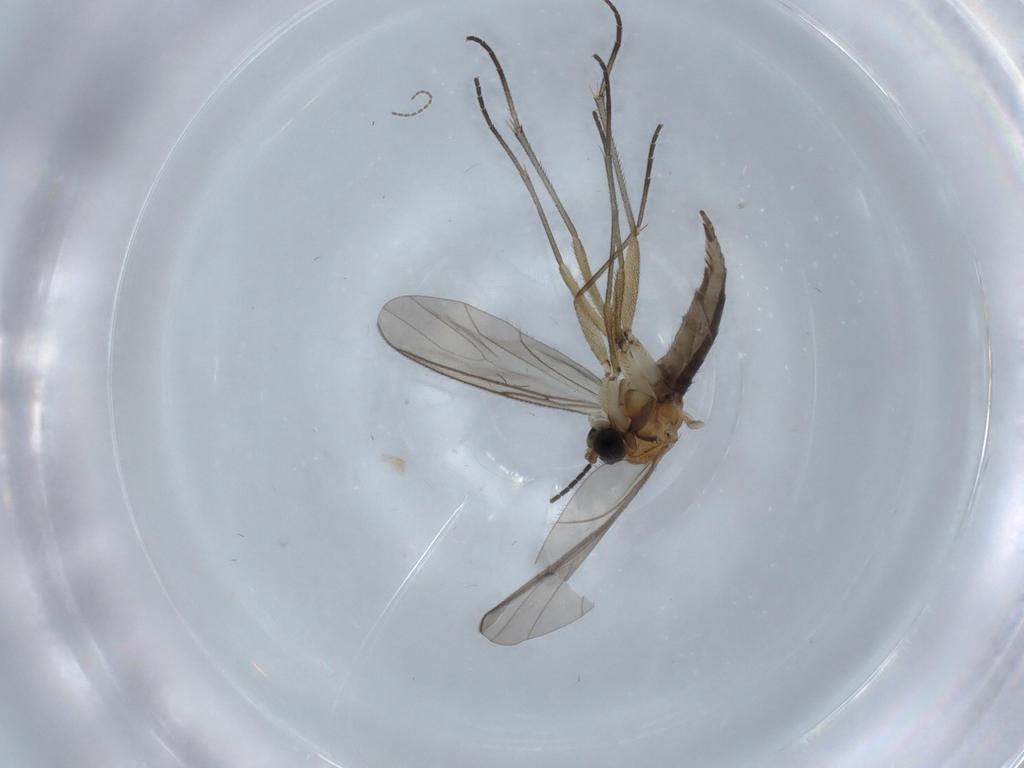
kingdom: Animalia
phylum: Arthropoda
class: Insecta
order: Diptera
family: Sciaridae
